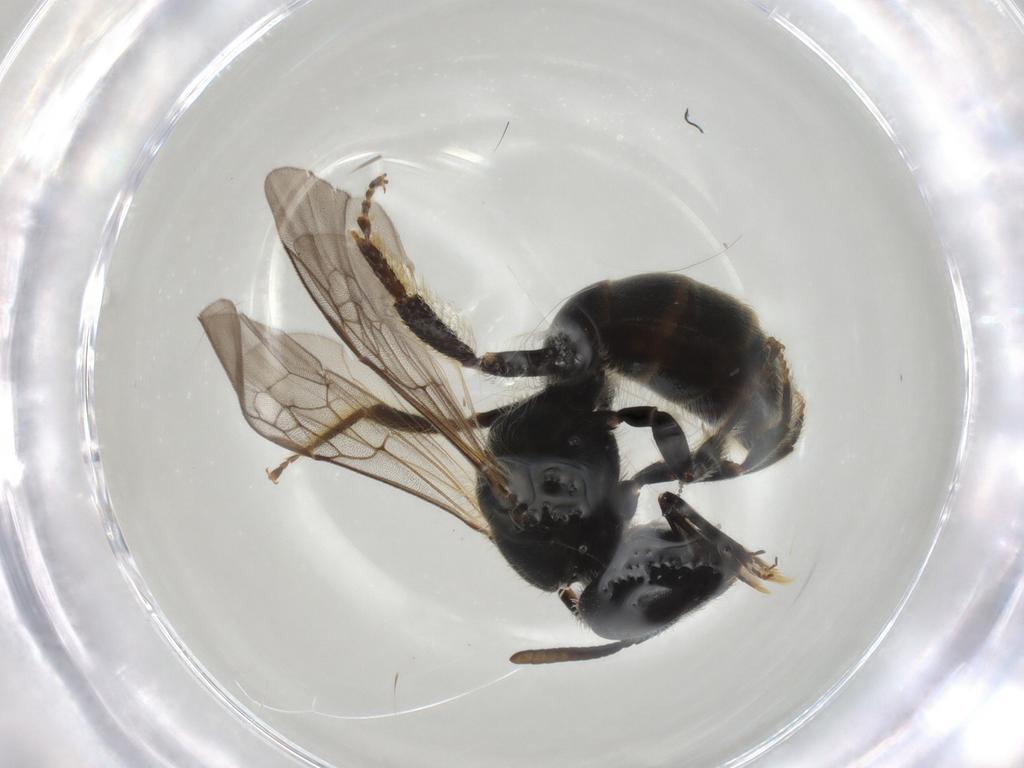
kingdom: Animalia
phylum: Arthropoda
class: Insecta
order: Hymenoptera
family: Halictidae
